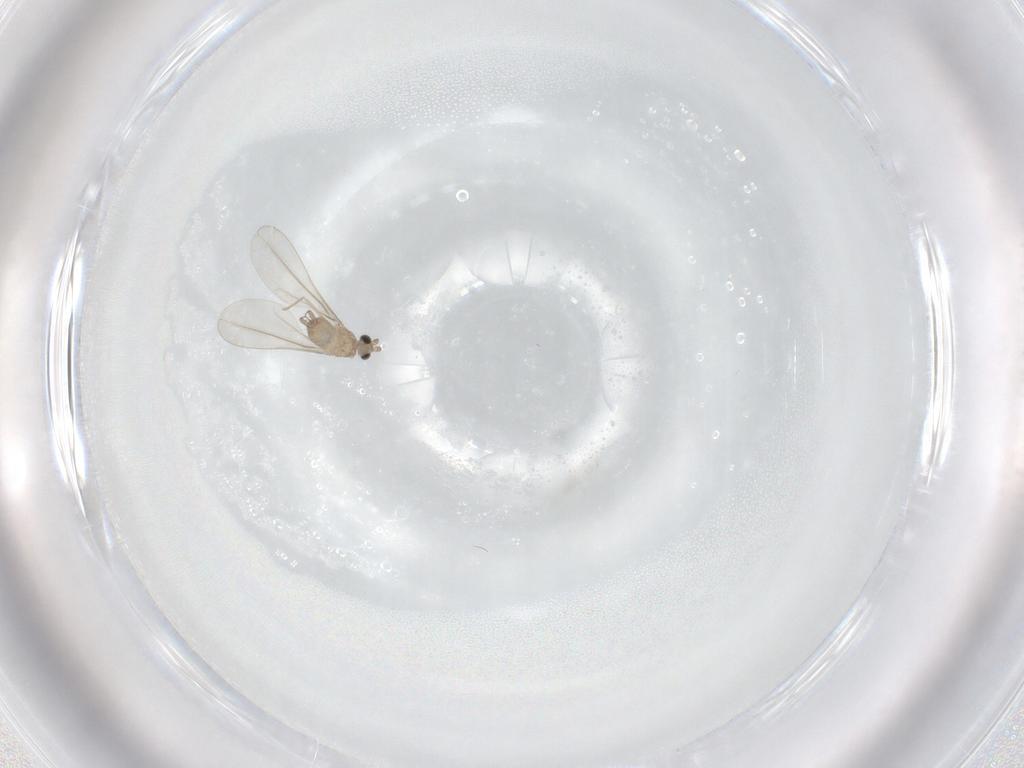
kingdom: Animalia
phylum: Arthropoda
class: Insecta
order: Diptera
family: Cecidomyiidae
